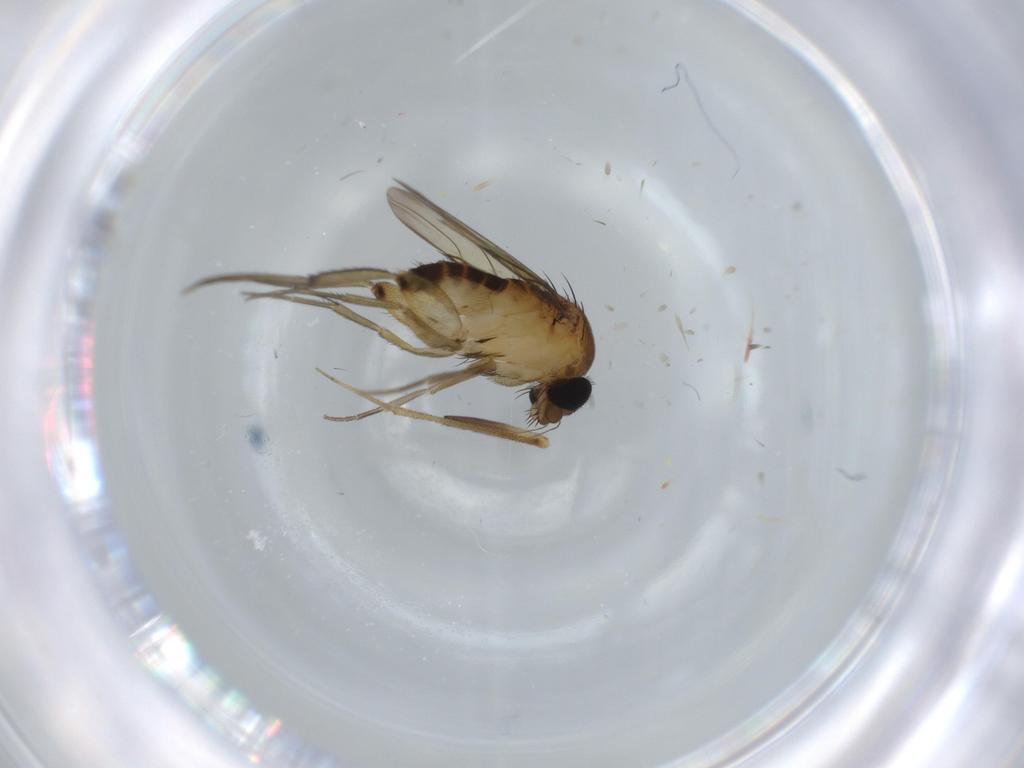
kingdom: Animalia
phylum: Arthropoda
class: Insecta
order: Diptera
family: Phoridae
